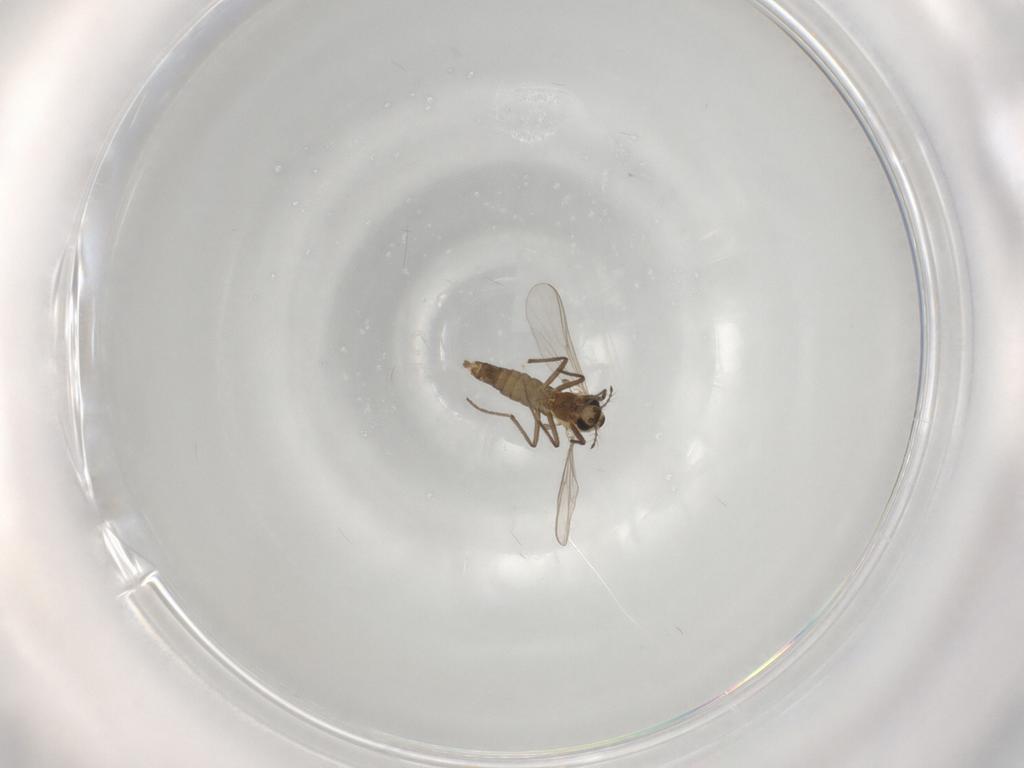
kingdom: Animalia
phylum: Arthropoda
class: Insecta
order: Diptera
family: Chironomidae
